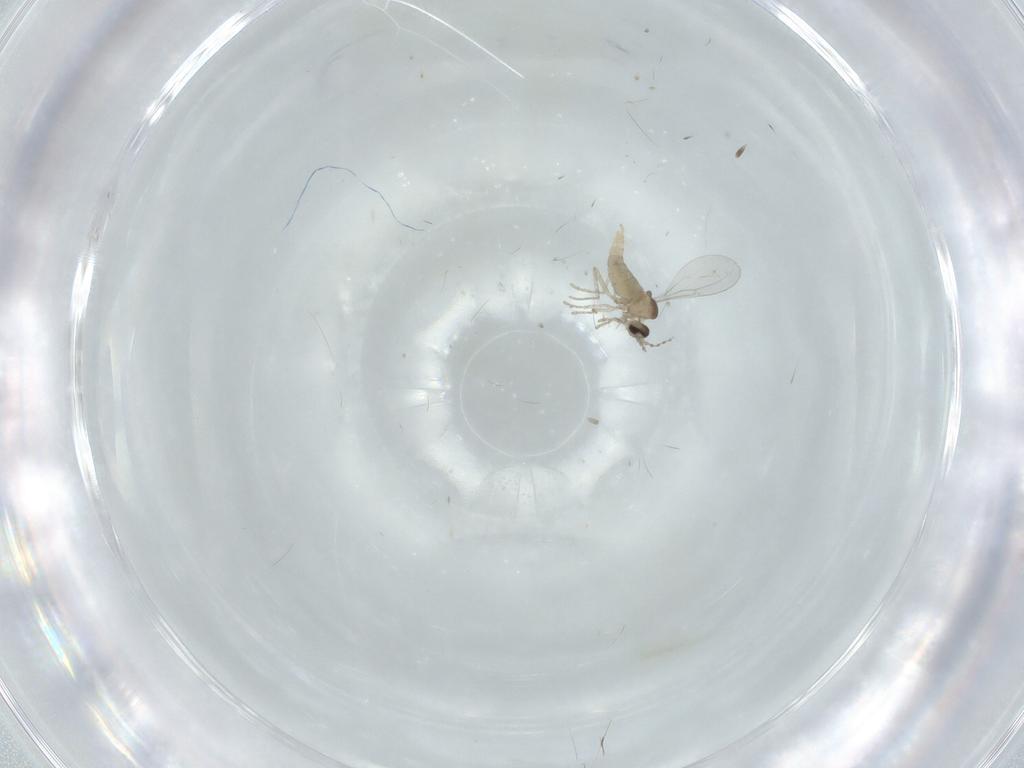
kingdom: Animalia
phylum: Arthropoda
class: Insecta
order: Diptera
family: Cecidomyiidae
